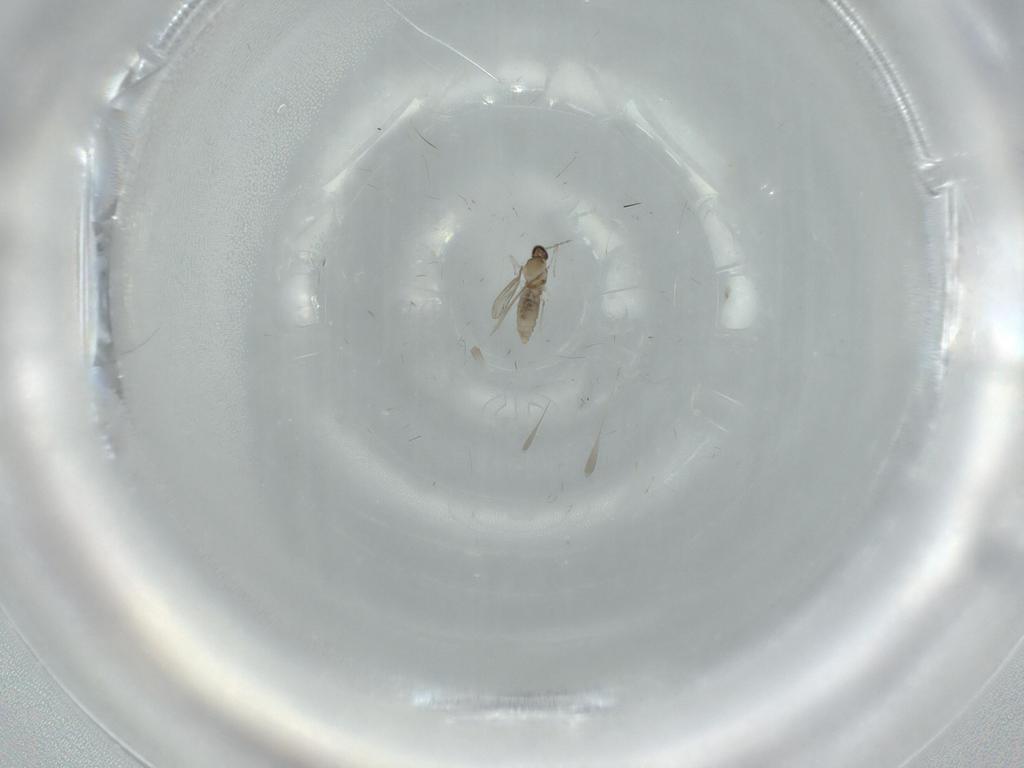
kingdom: Animalia
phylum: Arthropoda
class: Insecta
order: Diptera
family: Anthomyiidae
